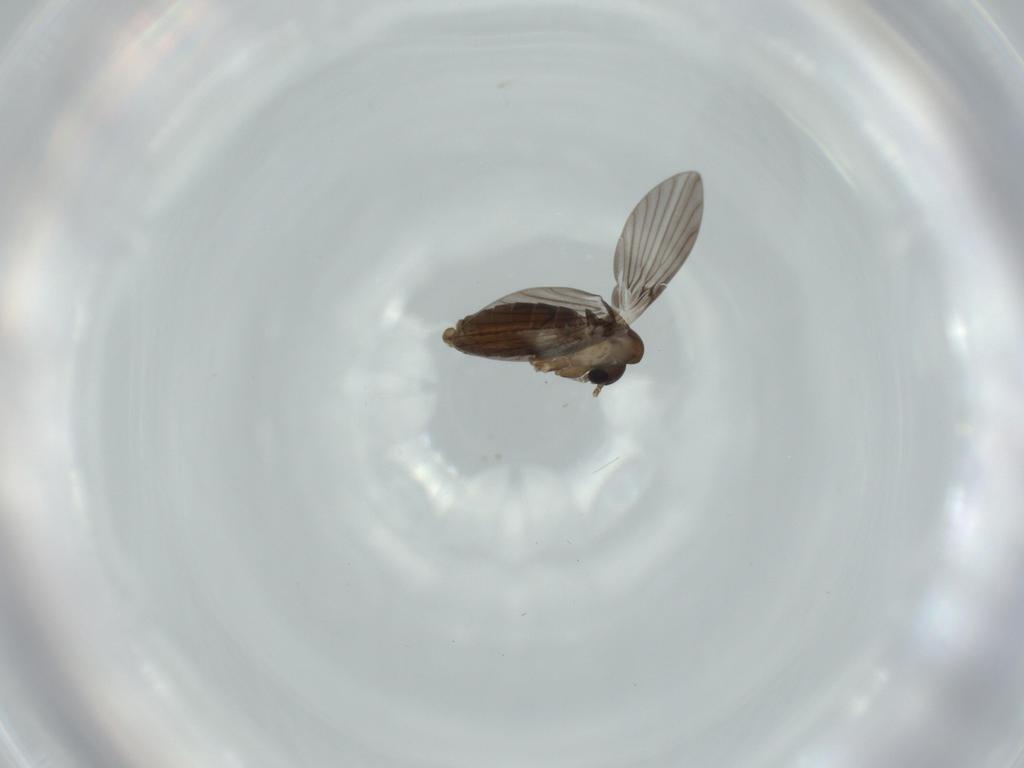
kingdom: Animalia
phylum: Arthropoda
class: Insecta
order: Diptera
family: Psychodidae
